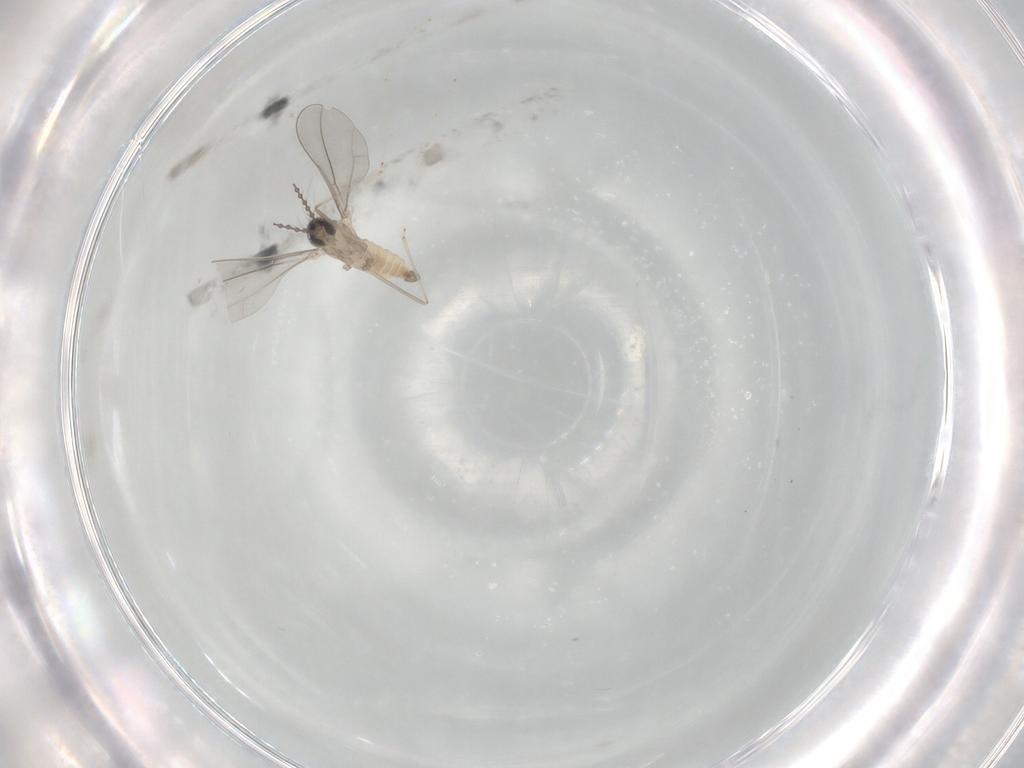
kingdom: Animalia
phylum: Arthropoda
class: Insecta
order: Diptera
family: Cecidomyiidae
